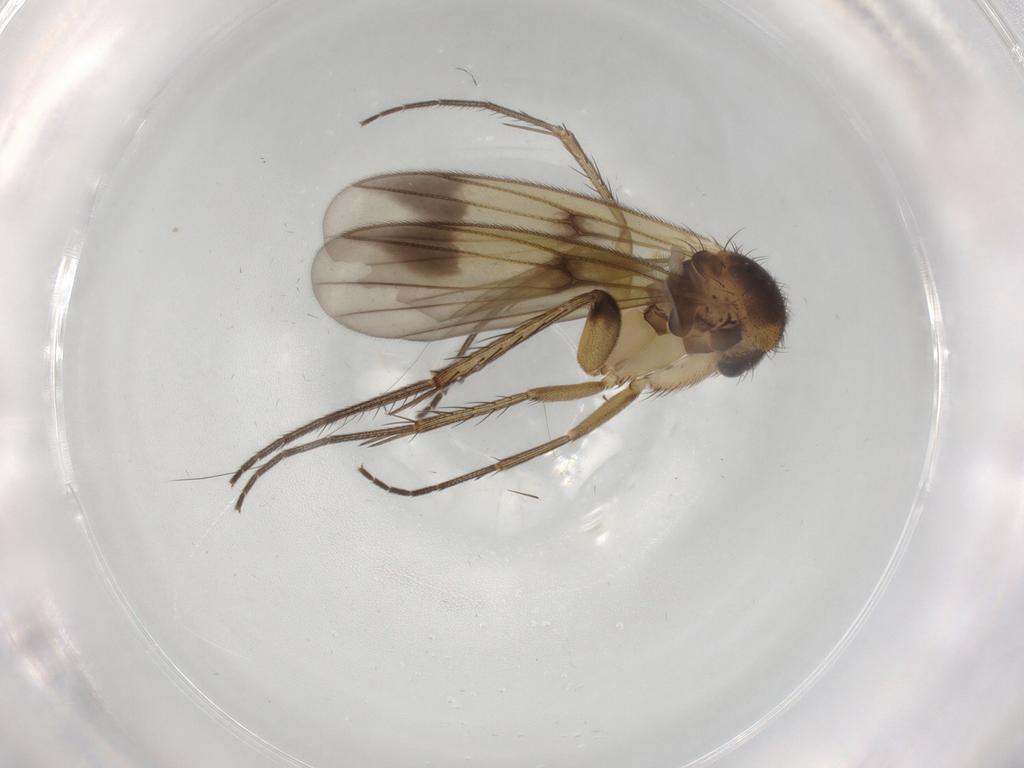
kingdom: Animalia
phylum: Arthropoda
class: Insecta
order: Diptera
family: Mycetophilidae
